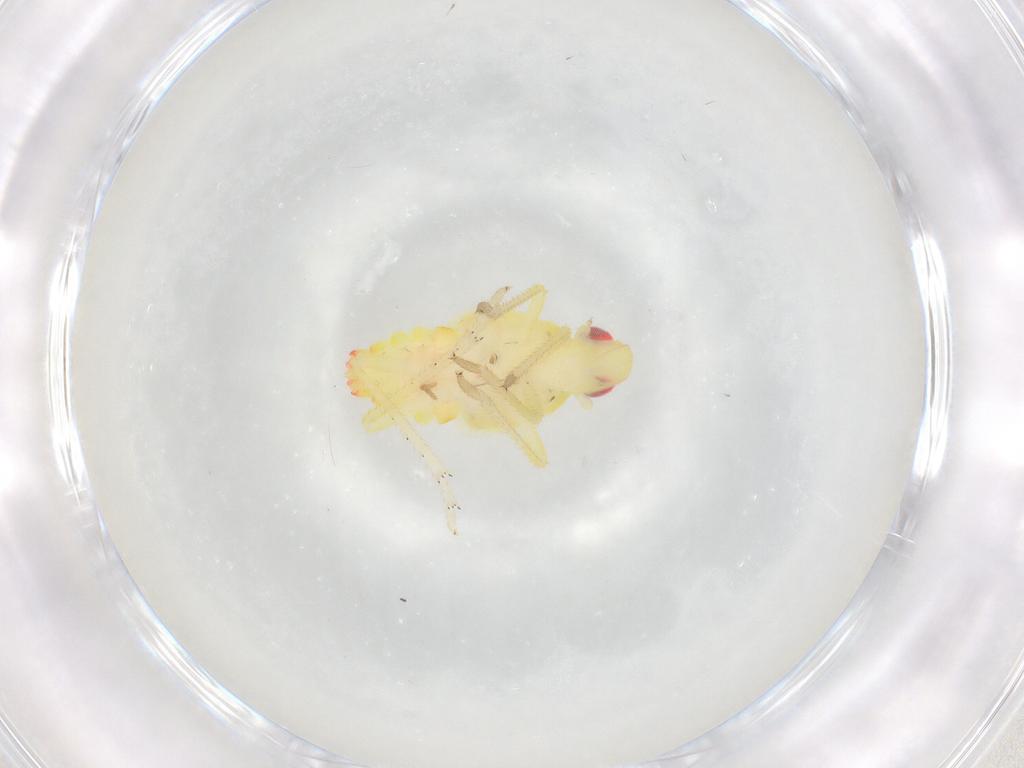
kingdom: Animalia
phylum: Arthropoda
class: Insecta
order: Hemiptera
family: Tropiduchidae
